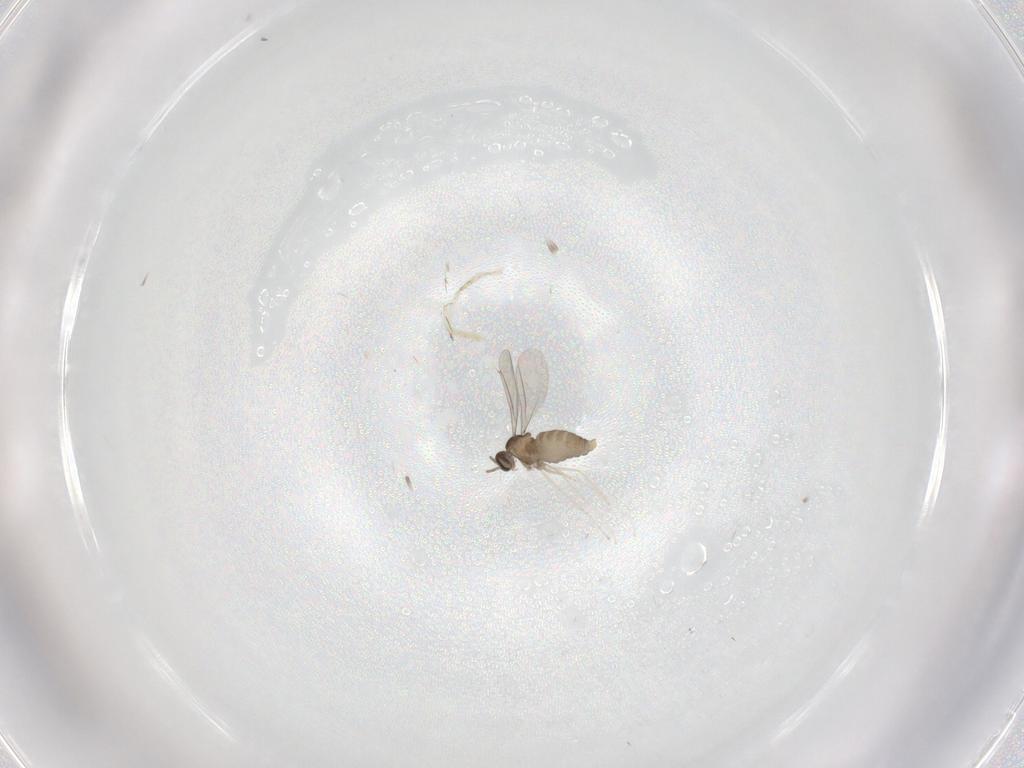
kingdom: Animalia
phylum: Arthropoda
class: Insecta
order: Diptera
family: Cecidomyiidae
